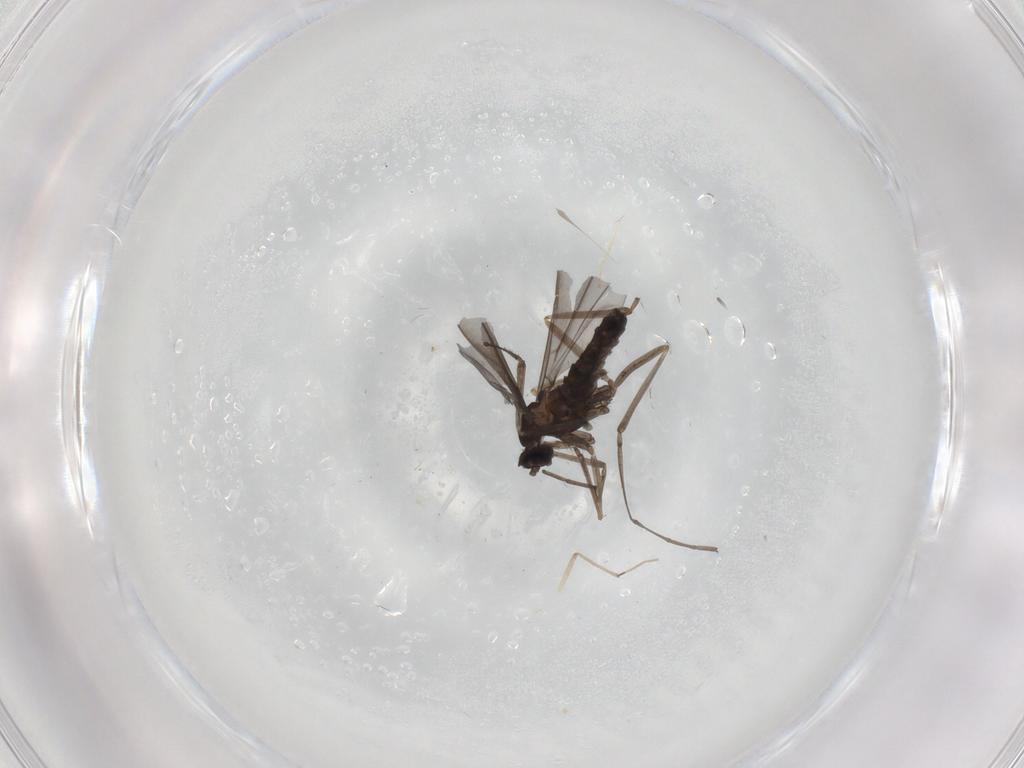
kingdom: Animalia
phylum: Arthropoda
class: Insecta
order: Diptera
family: Cecidomyiidae
